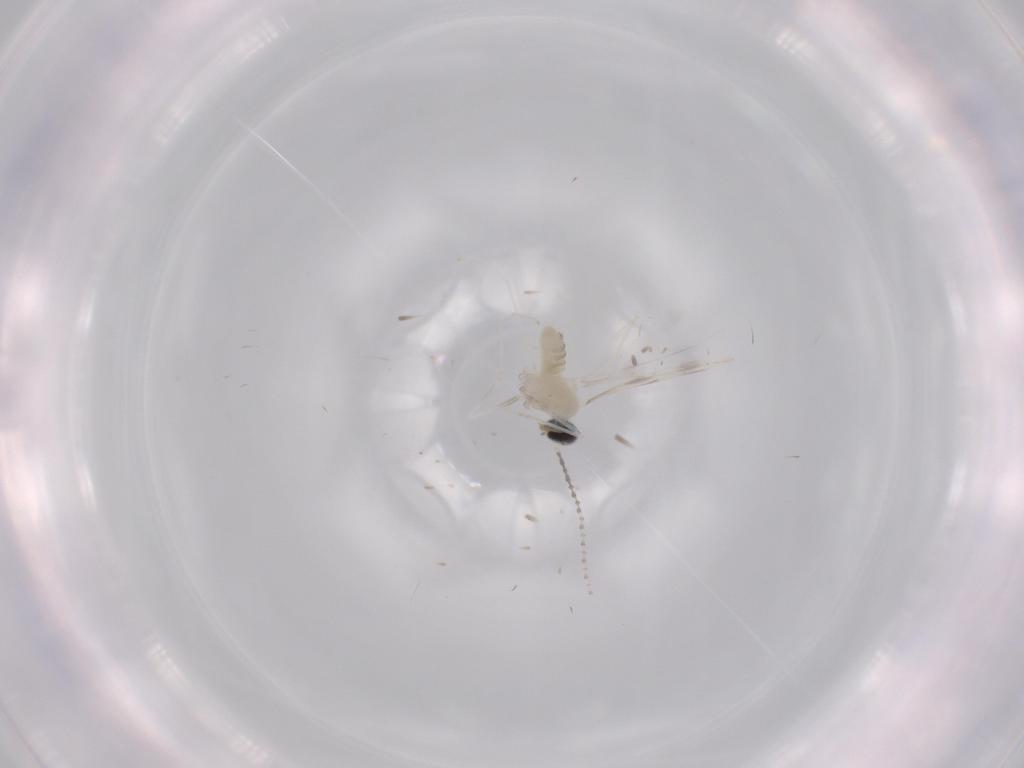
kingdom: Animalia
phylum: Arthropoda
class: Insecta
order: Diptera
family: Cecidomyiidae
